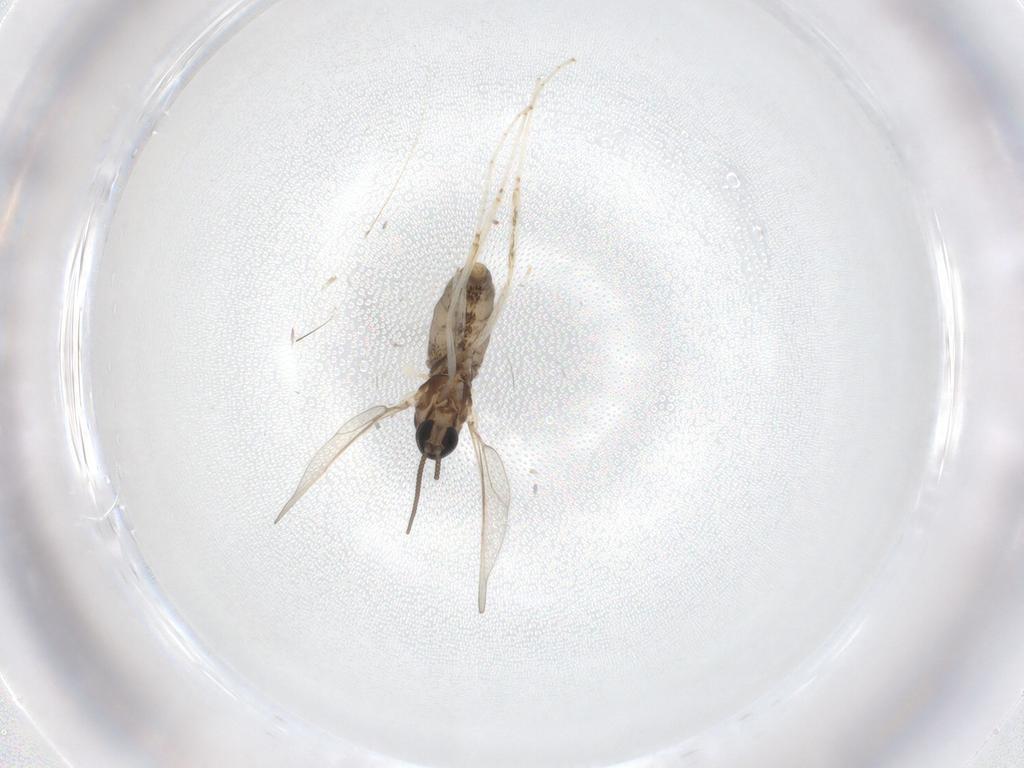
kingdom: Animalia
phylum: Arthropoda
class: Insecta
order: Diptera
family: Cecidomyiidae
